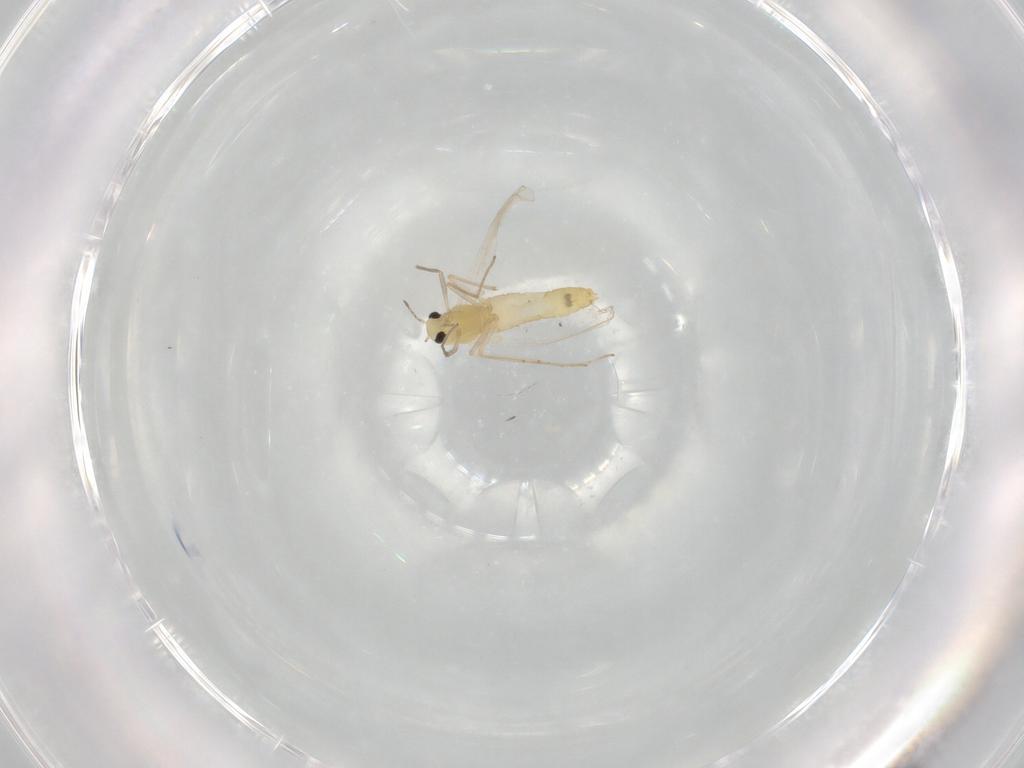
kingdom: Animalia
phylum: Arthropoda
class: Insecta
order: Diptera
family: Chironomidae
